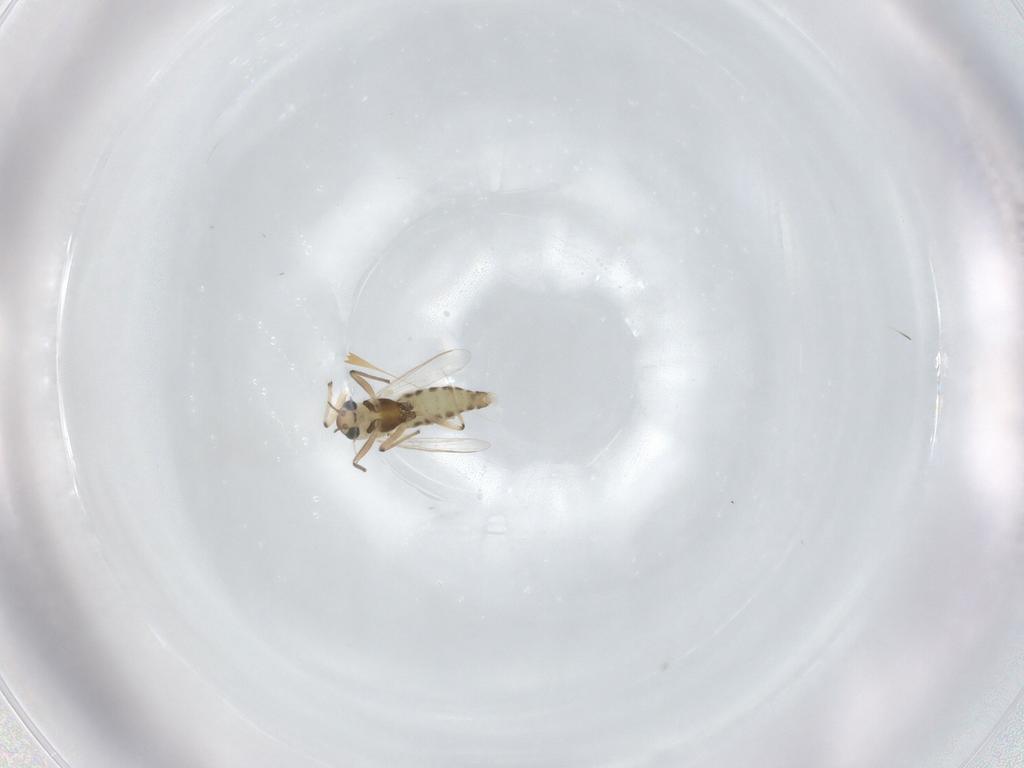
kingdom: Animalia
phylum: Arthropoda
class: Insecta
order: Diptera
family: Chironomidae
